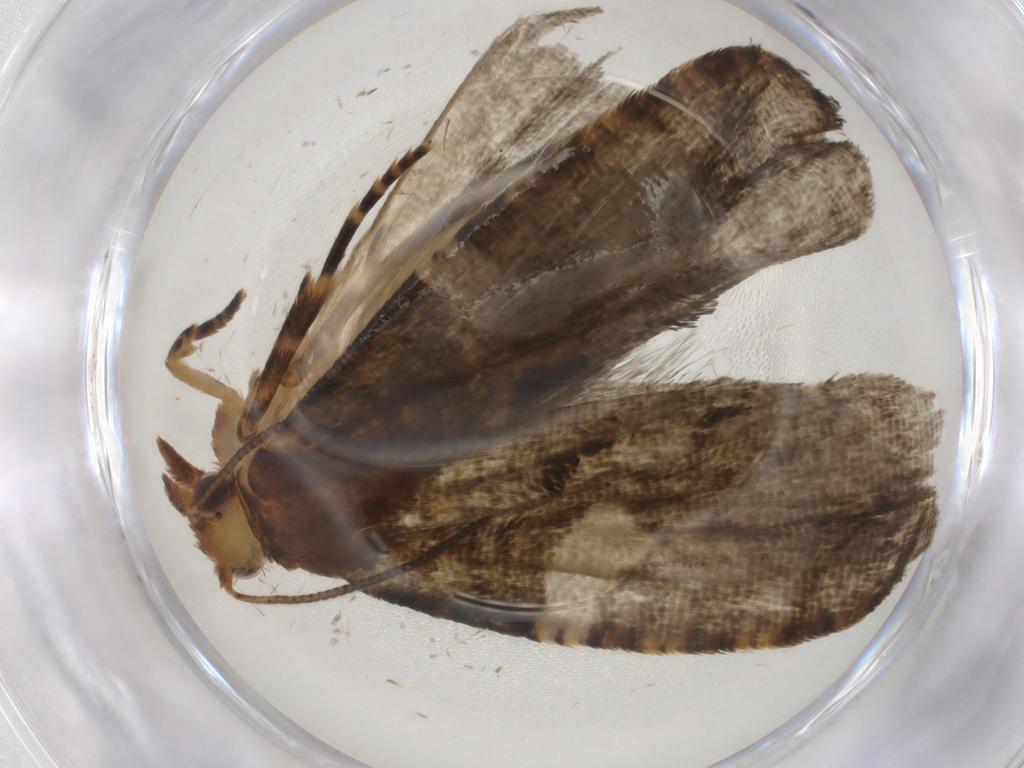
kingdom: Animalia
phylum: Arthropoda
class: Insecta
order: Lepidoptera
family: Tortricidae
